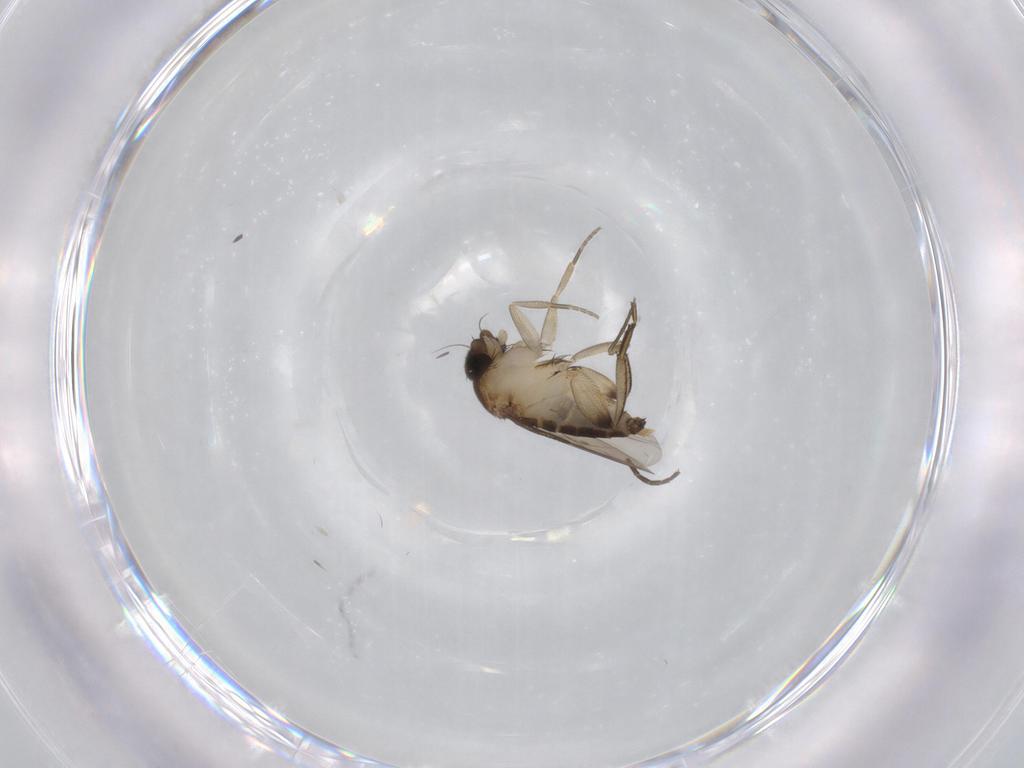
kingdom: Animalia
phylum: Arthropoda
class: Insecta
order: Diptera
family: Phoridae
